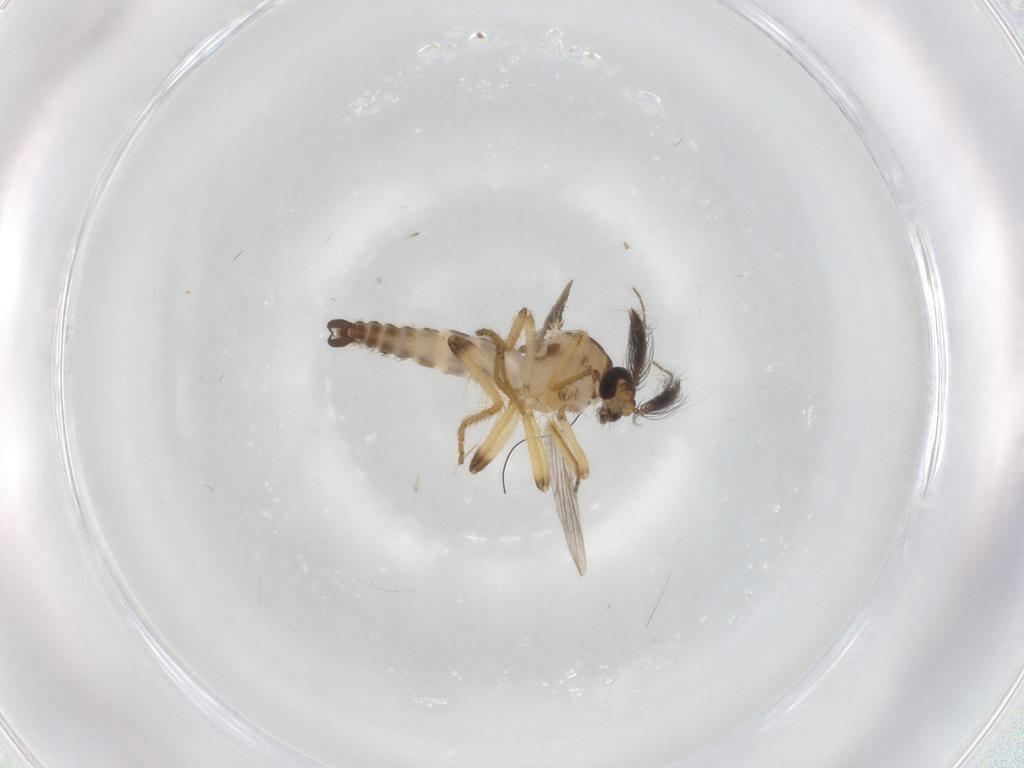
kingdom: Animalia
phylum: Arthropoda
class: Insecta
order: Diptera
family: Ceratopogonidae
